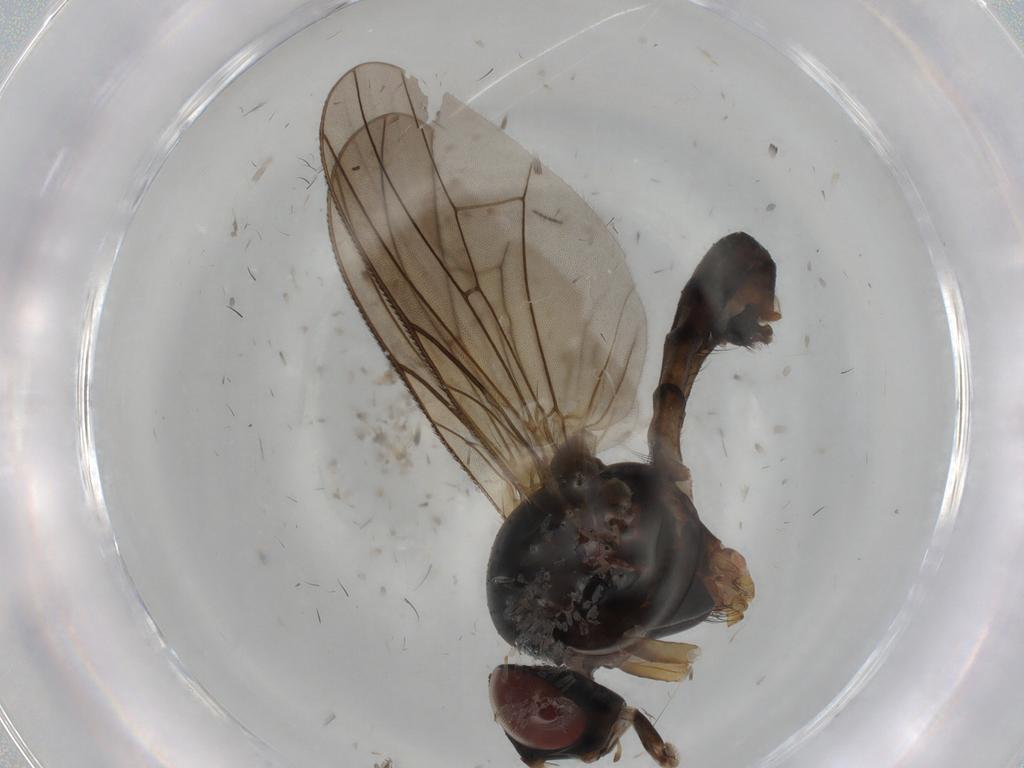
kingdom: Animalia
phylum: Arthropoda
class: Insecta
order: Diptera
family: Anthomyiidae
